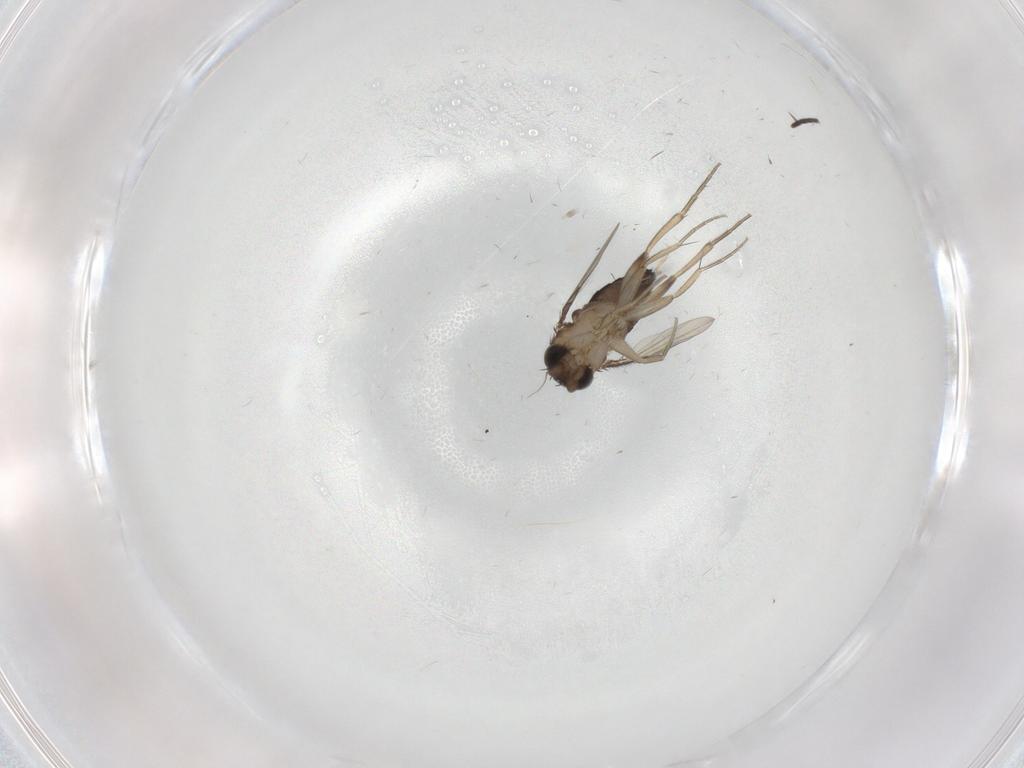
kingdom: Animalia
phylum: Arthropoda
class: Insecta
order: Diptera
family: Phoridae
